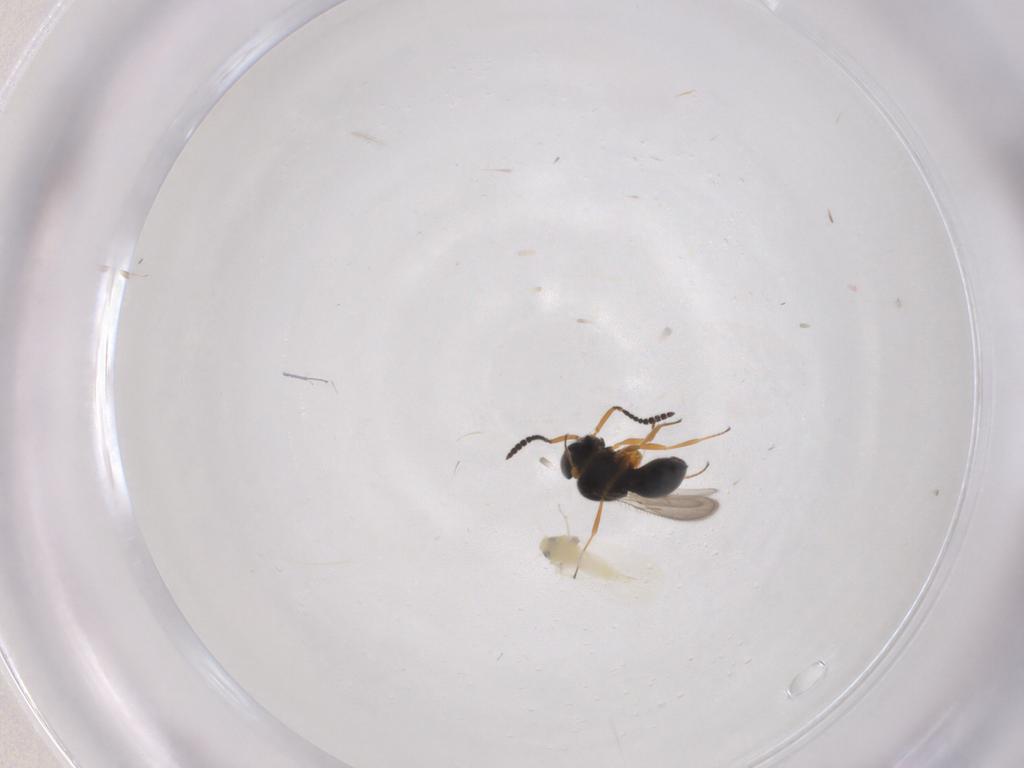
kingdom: Animalia
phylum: Arthropoda
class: Insecta
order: Hymenoptera
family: Scelionidae
